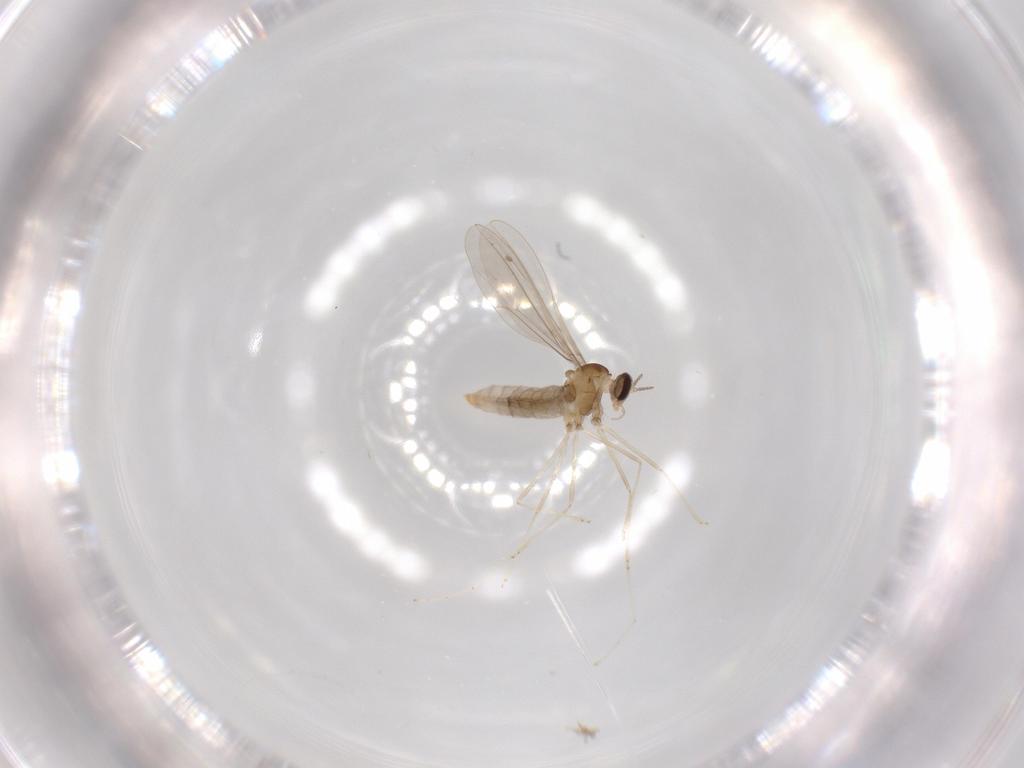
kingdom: Animalia
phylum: Arthropoda
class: Insecta
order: Diptera
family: Cecidomyiidae
